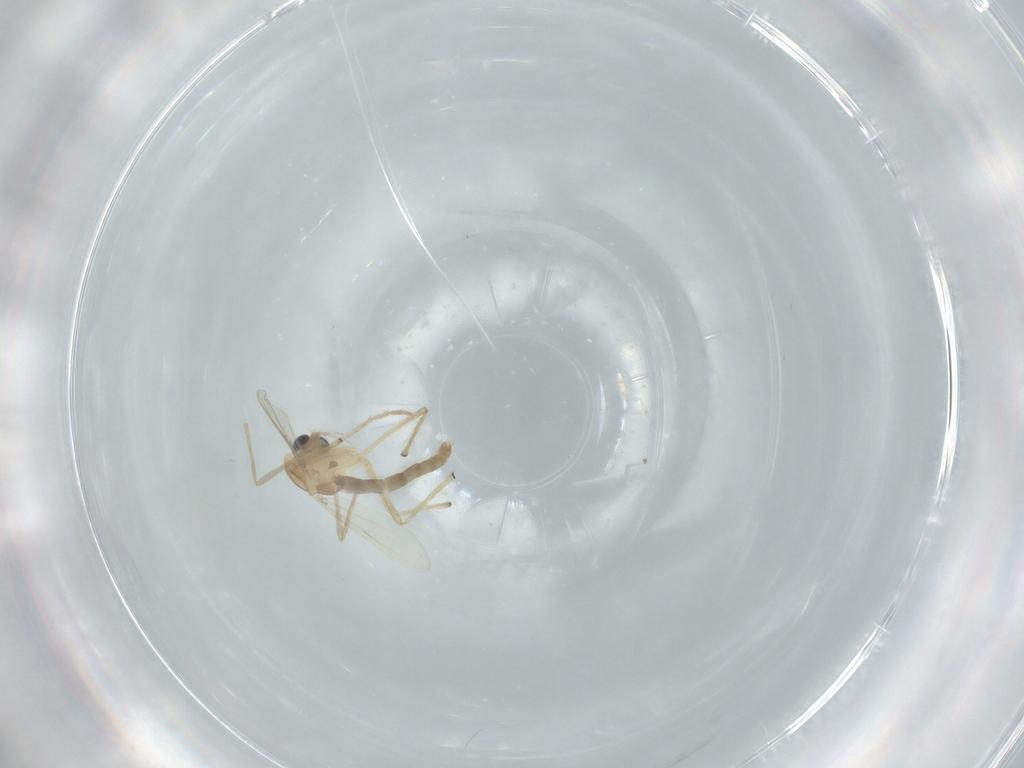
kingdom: Animalia
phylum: Arthropoda
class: Insecta
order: Diptera
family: Chironomidae
